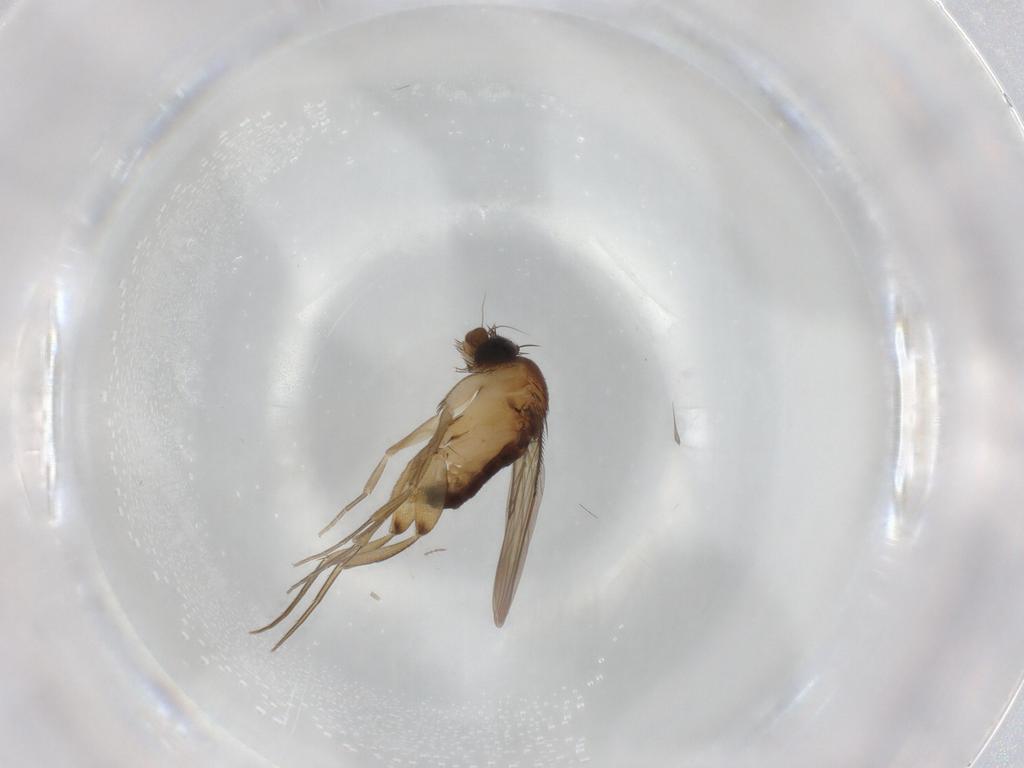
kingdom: Animalia
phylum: Arthropoda
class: Insecta
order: Diptera
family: Phoridae
